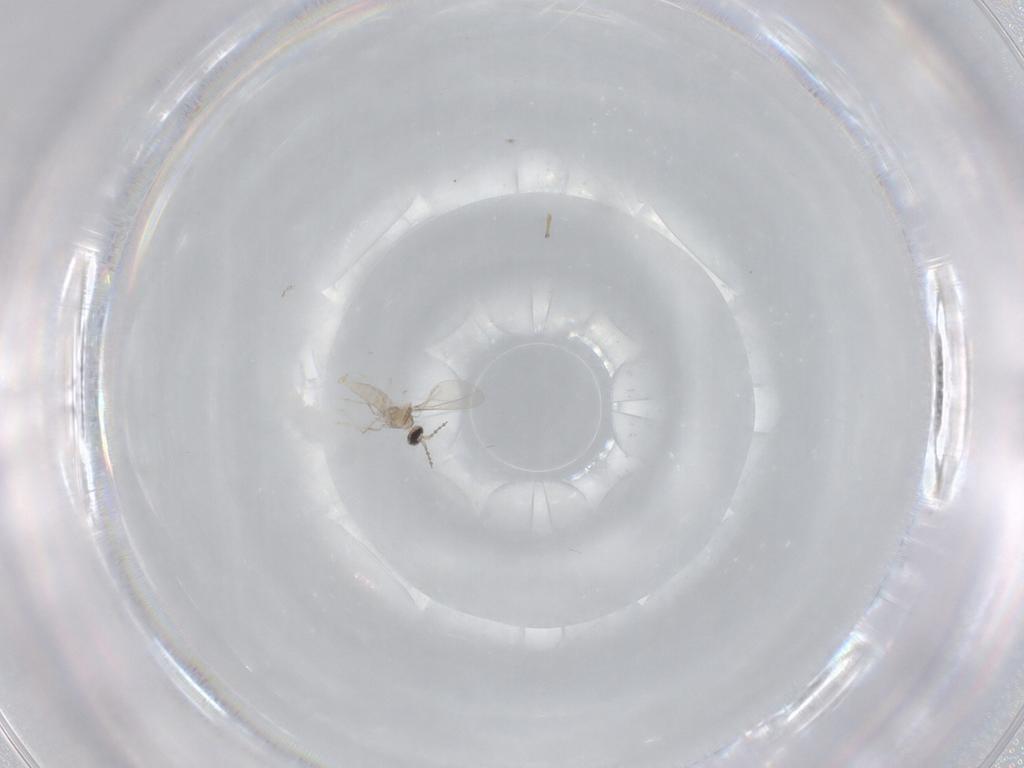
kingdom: Animalia
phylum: Arthropoda
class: Insecta
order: Diptera
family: Cecidomyiidae
